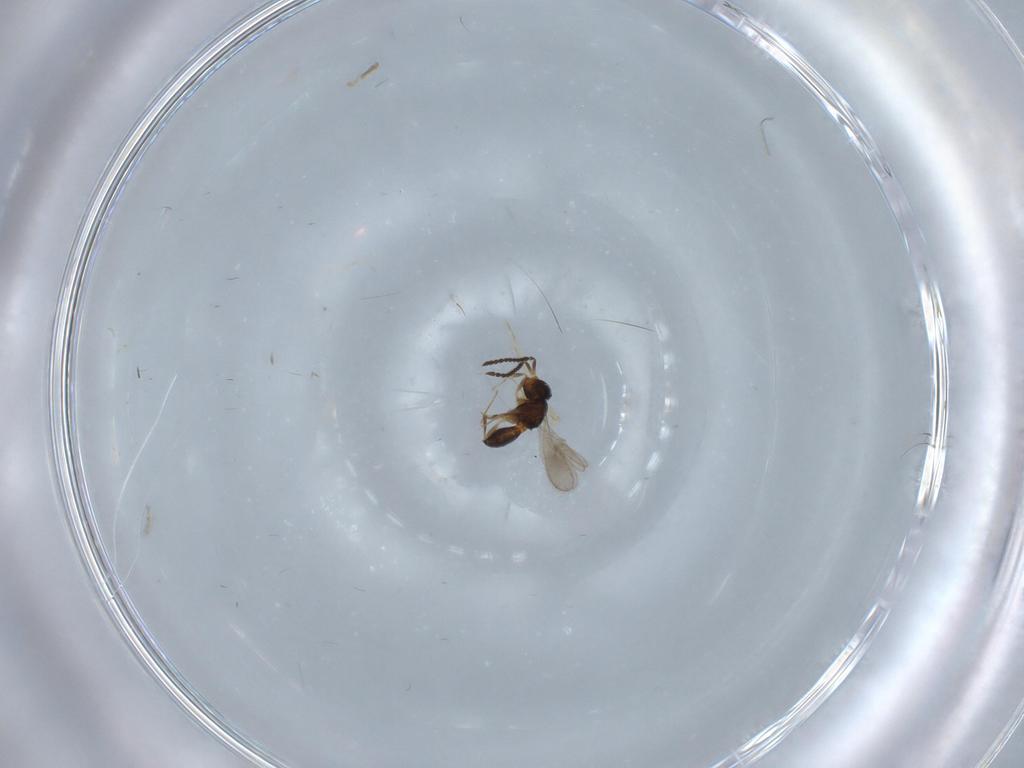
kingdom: Animalia
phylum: Arthropoda
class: Insecta
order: Hymenoptera
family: Scelionidae
